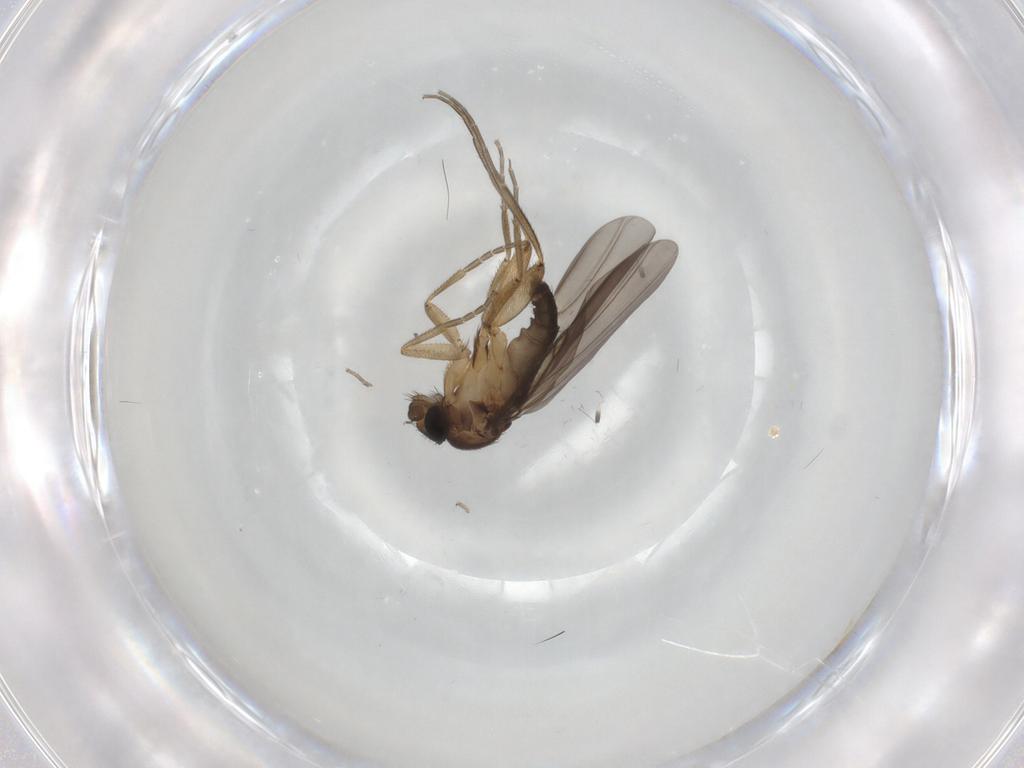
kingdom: Animalia
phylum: Arthropoda
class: Insecta
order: Diptera
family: Phoridae
